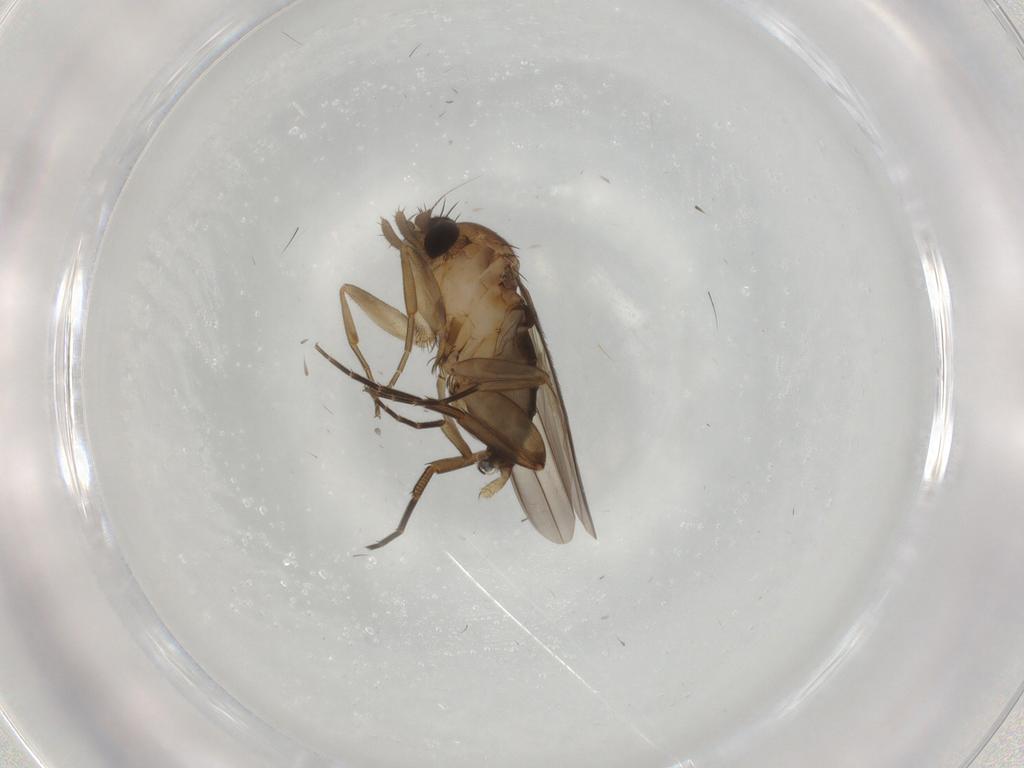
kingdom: Animalia
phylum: Arthropoda
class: Insecta
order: Diptera
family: Phoridae
